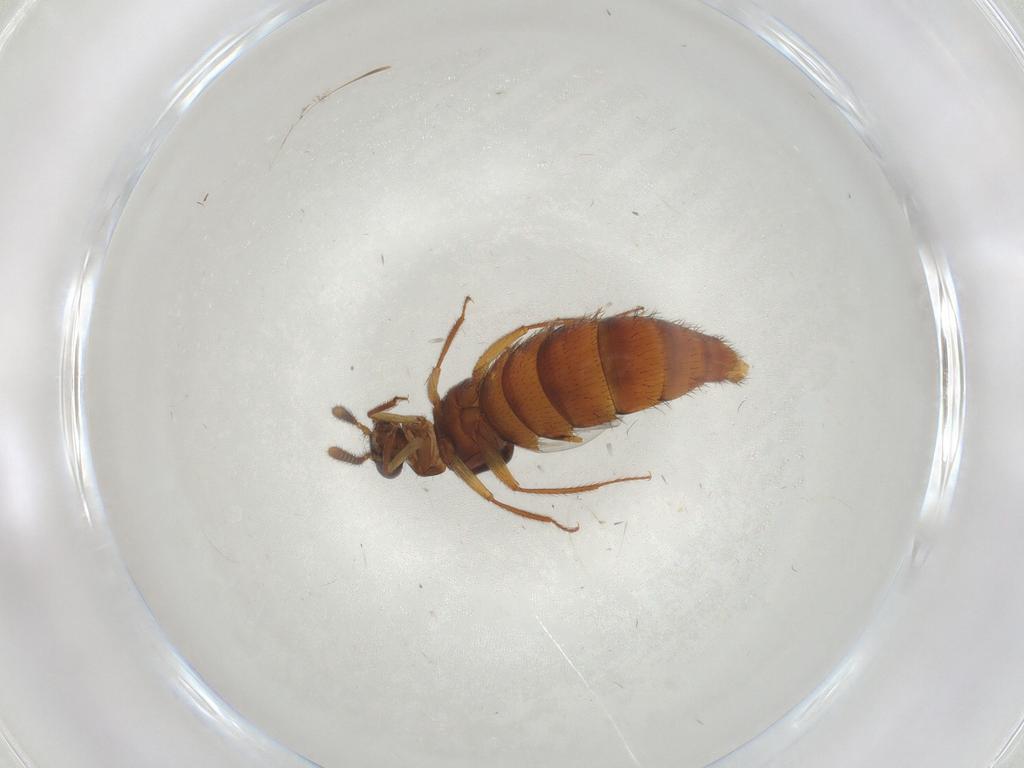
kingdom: Animalia
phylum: Arthropoda
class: Insecta
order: Coleoptera
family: Staphylinidae
